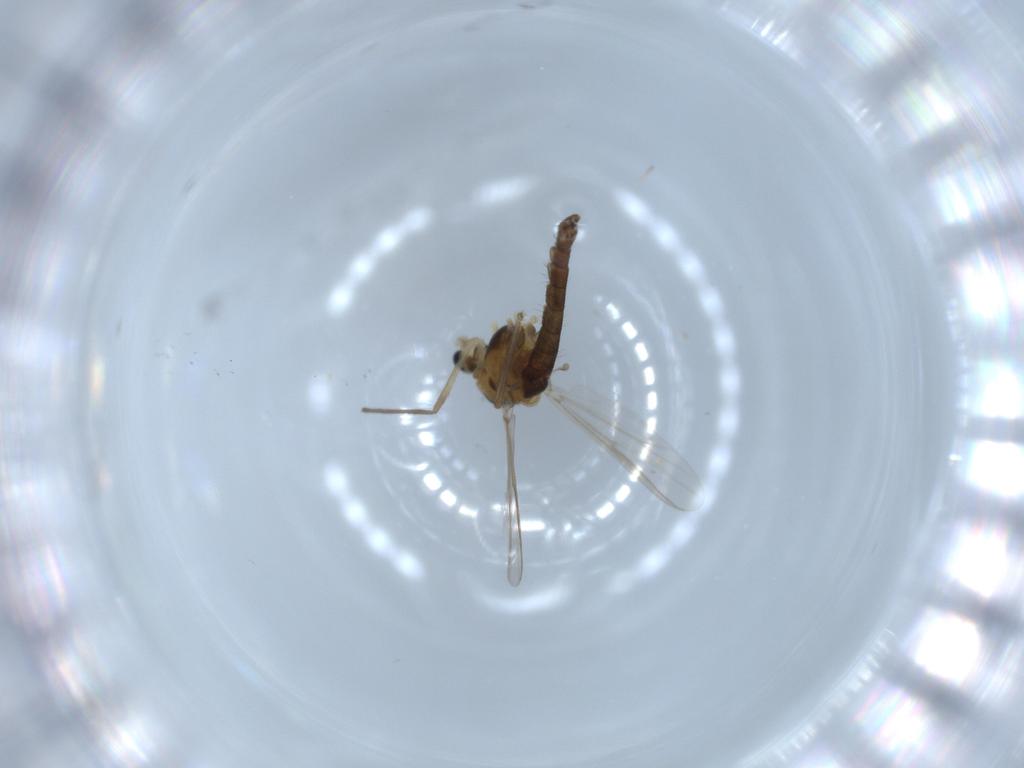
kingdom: Animalia
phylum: Arthropoda
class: Insecta
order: Diptera
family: Chironomidae
